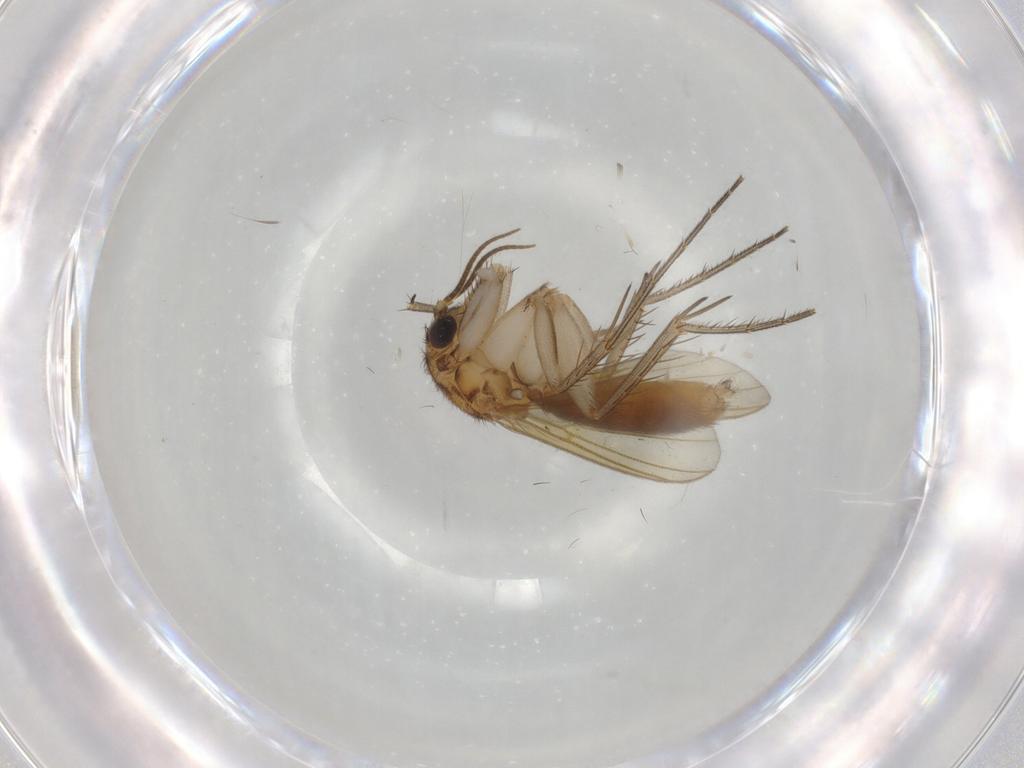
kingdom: Animalia
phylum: Arthropoda
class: Insecta
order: Diptera
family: Mycetophilidae
